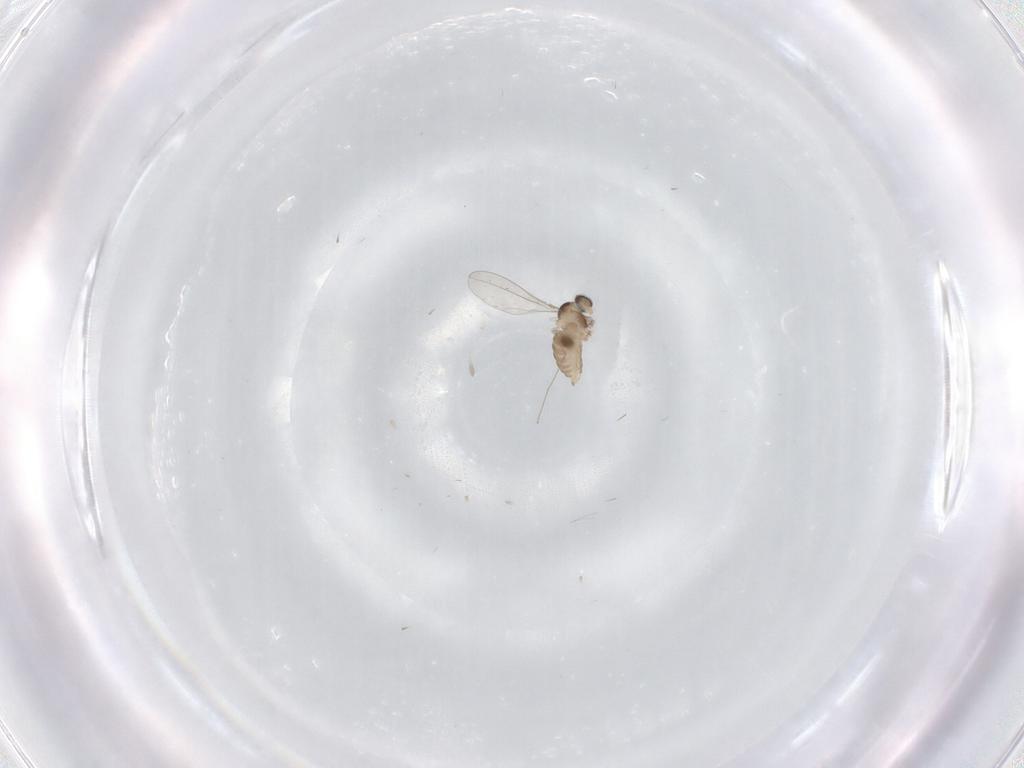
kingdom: Animalia
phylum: Arthropoda
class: Insecta
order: Diptera
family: Cecidomyiidae
